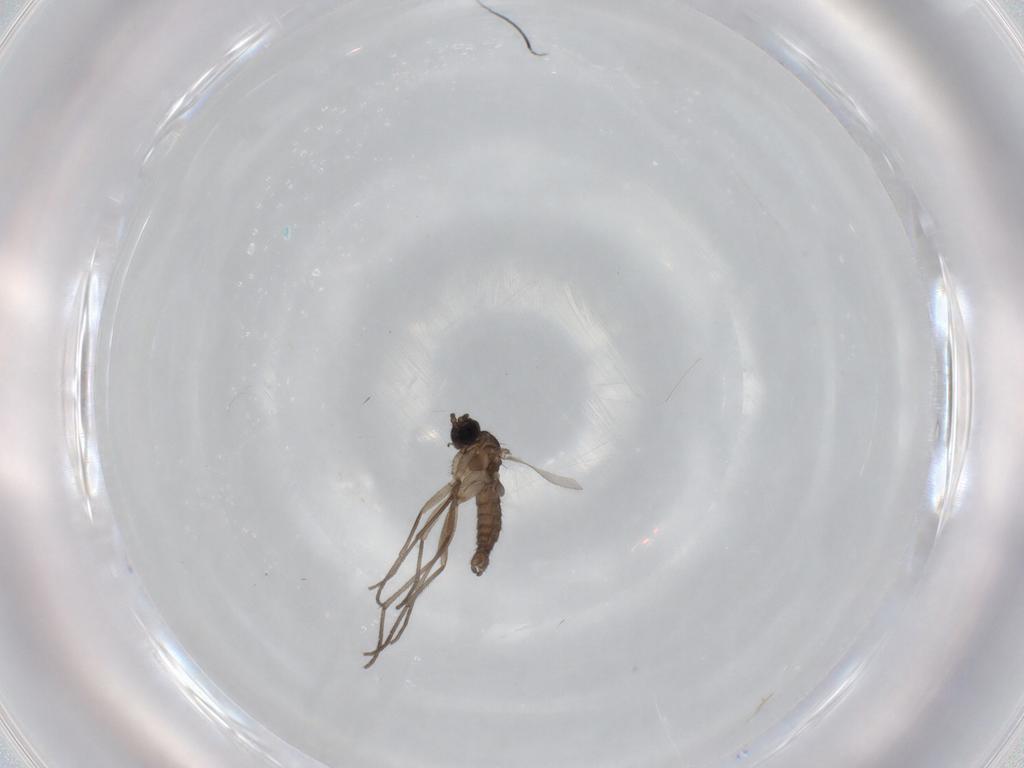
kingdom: Animalia
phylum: Arthropoda
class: Insecta
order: Diptera
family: Sciaridae
